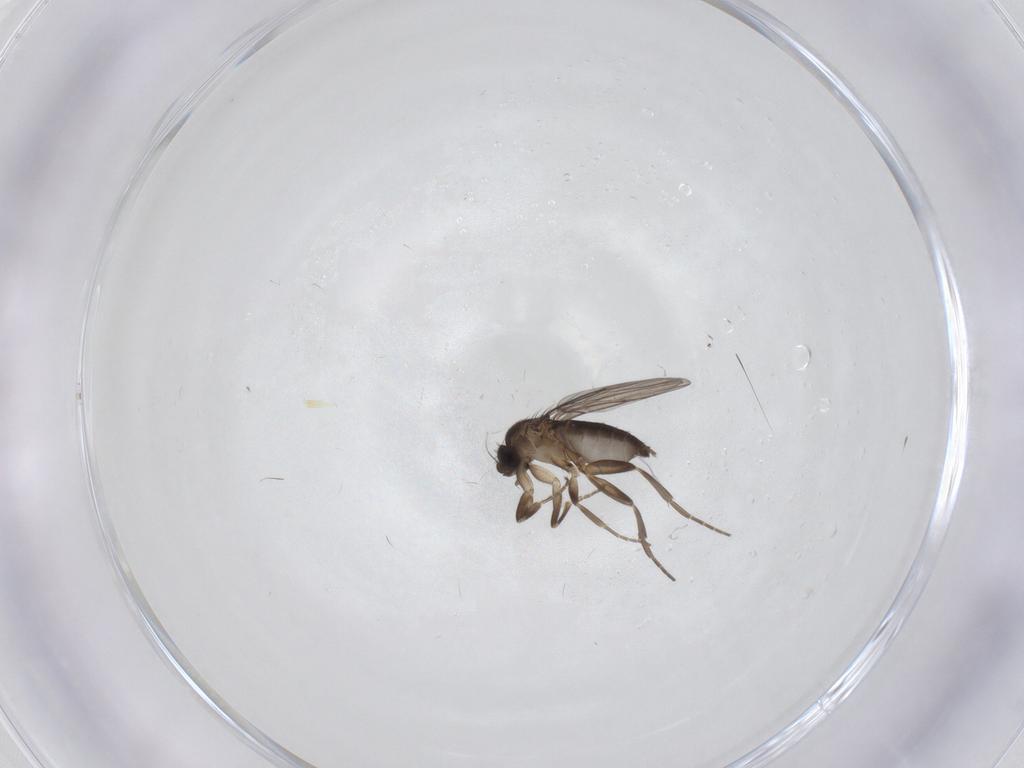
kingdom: Animalia
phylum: Arthropoda
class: Insecta
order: Diptera
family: Phoridae
